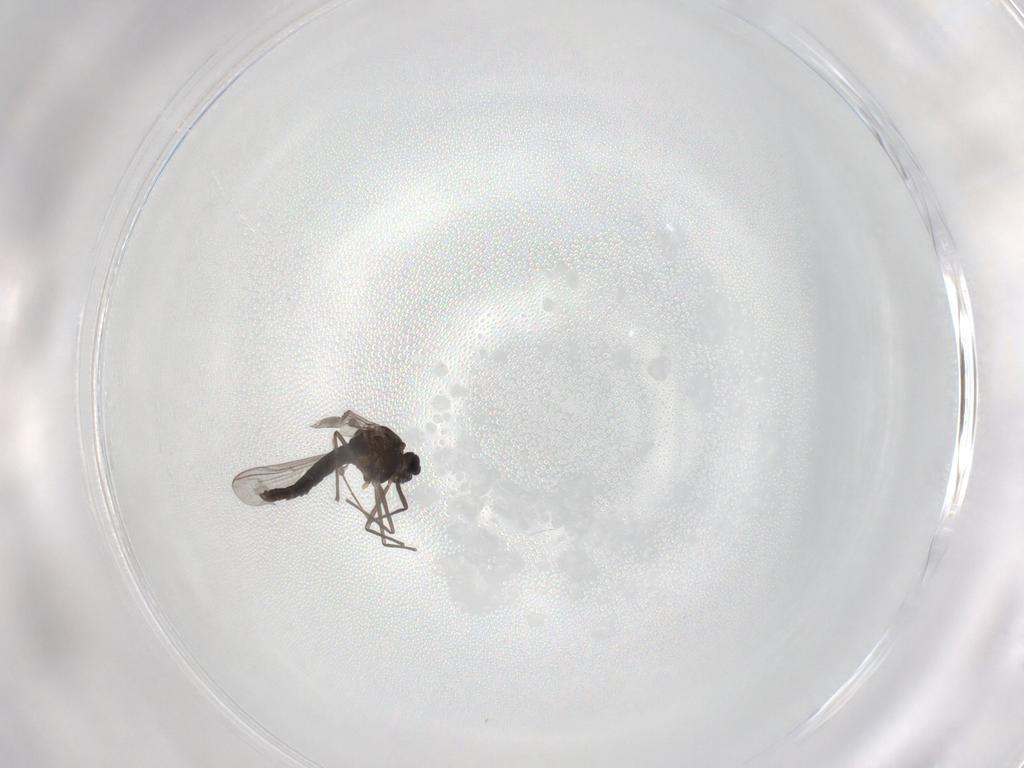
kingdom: Animalia
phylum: Arthropoda
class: Insecta
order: Diptera
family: Chironomidae
